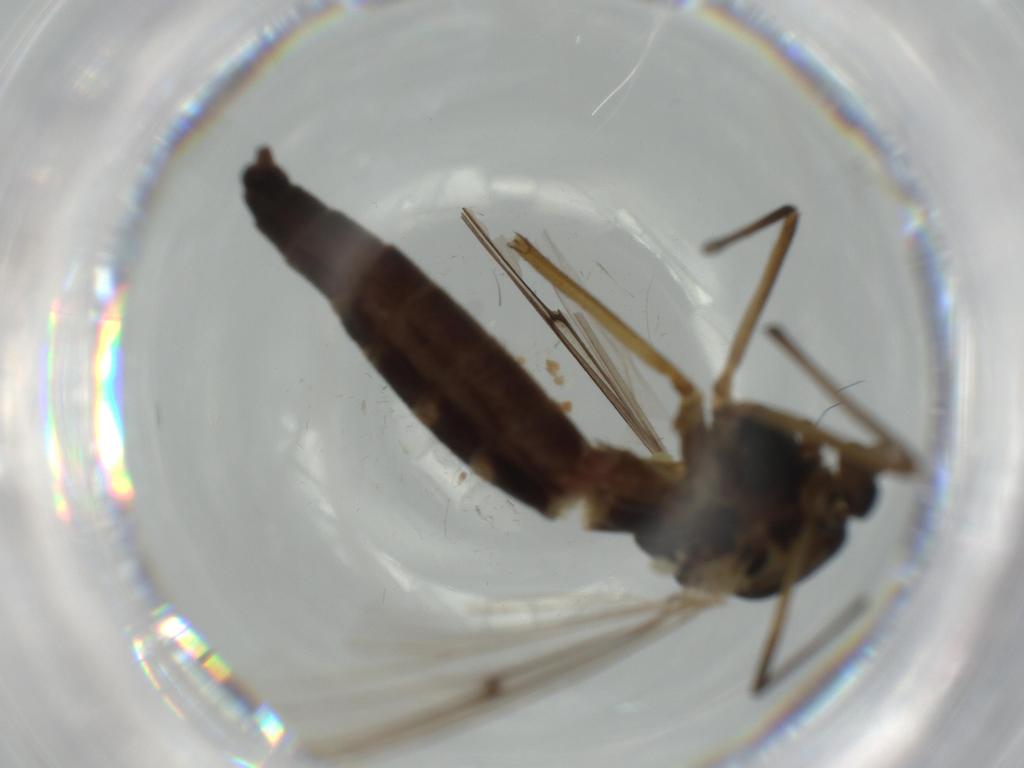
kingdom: Animalia
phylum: Arthropoda
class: Insecta
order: Diptera
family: Chironomidae
